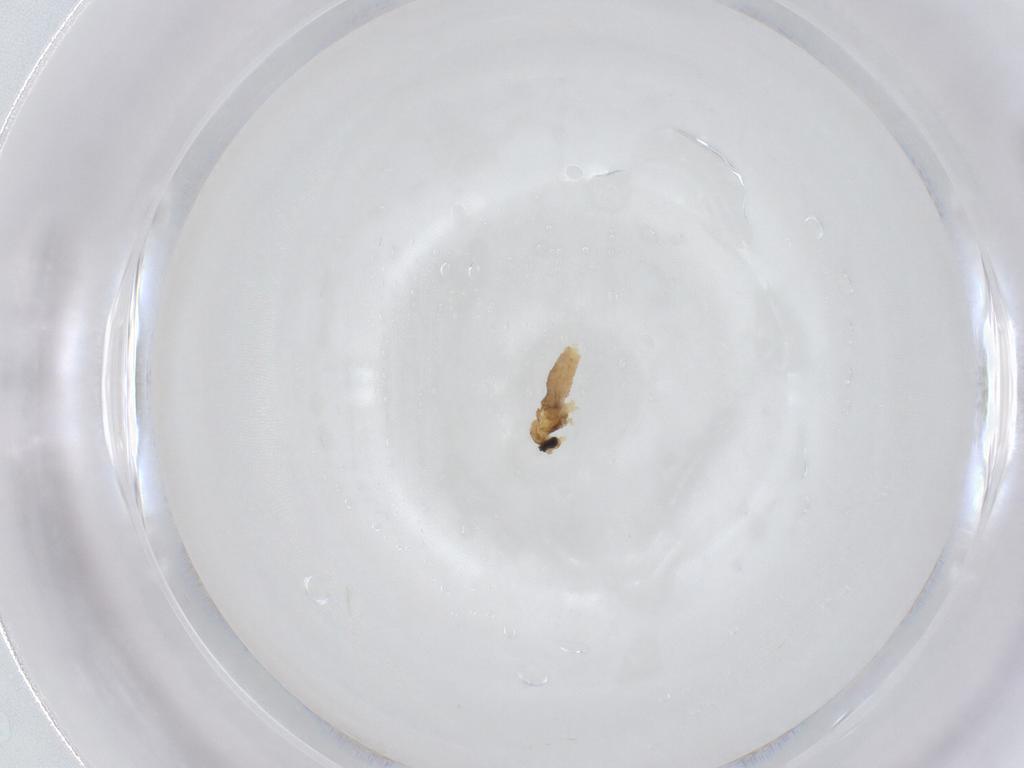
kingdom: Animalia
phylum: Arthropoda
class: Insecta
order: Diptera
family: Cecidomyiidae
